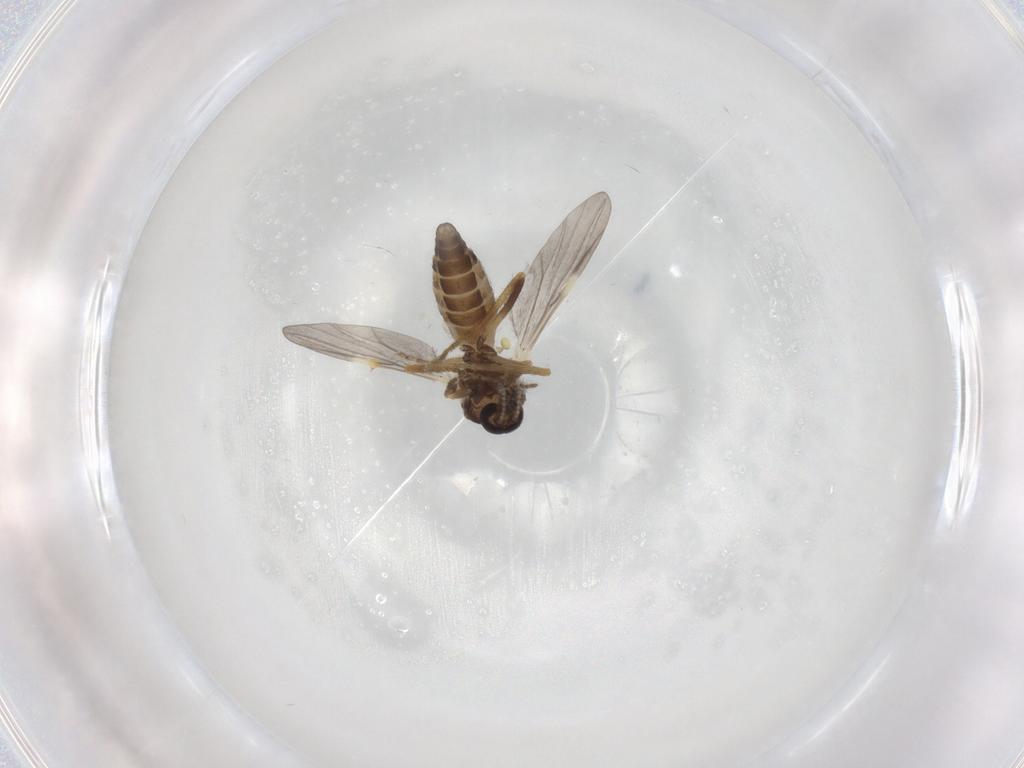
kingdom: Animalia
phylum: Arthropoda
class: Insecta
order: Diptera
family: Ceratopogonidae
